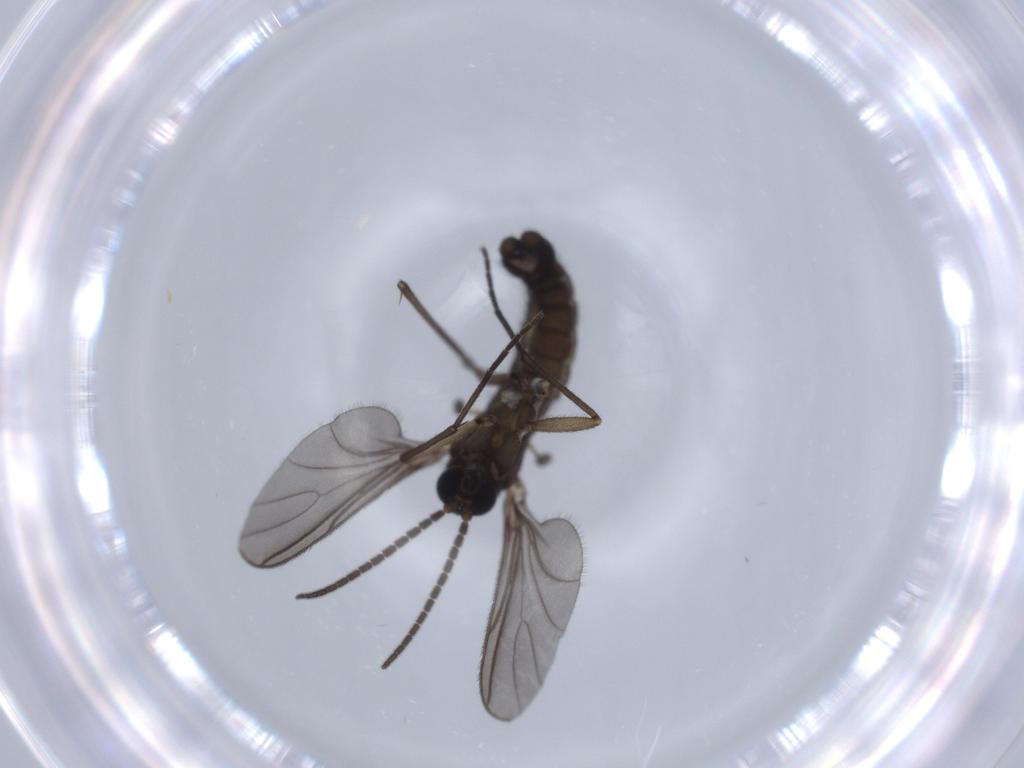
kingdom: Animalia
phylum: Arthropoda
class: Insecta
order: Diptera
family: Sciaridae
